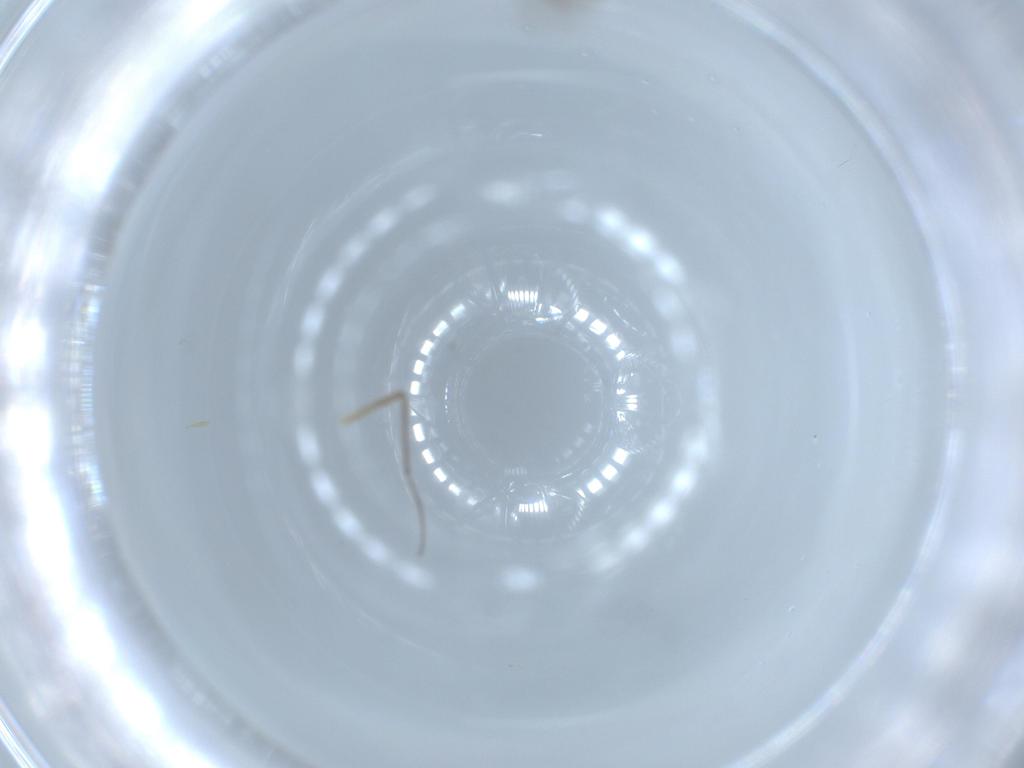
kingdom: Animalia
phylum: Arthropoda
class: Insecta
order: Diptera
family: Chironomidae
